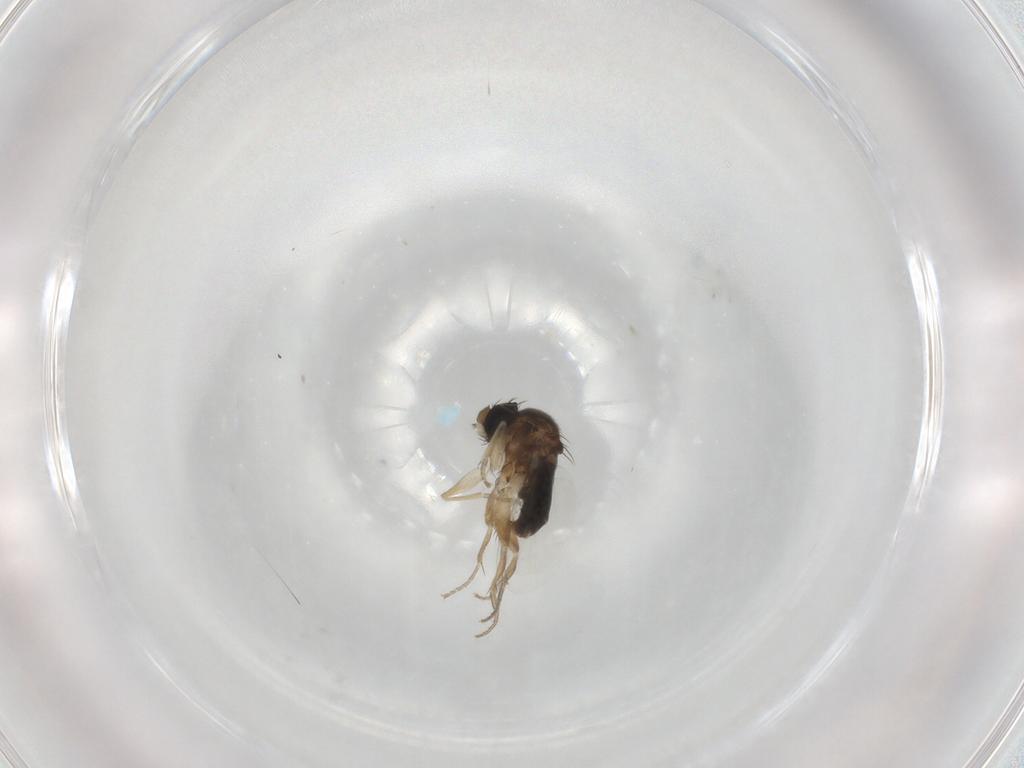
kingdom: Animalia
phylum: Arthropoda
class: Insecta
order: Diptera
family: Phoridae
